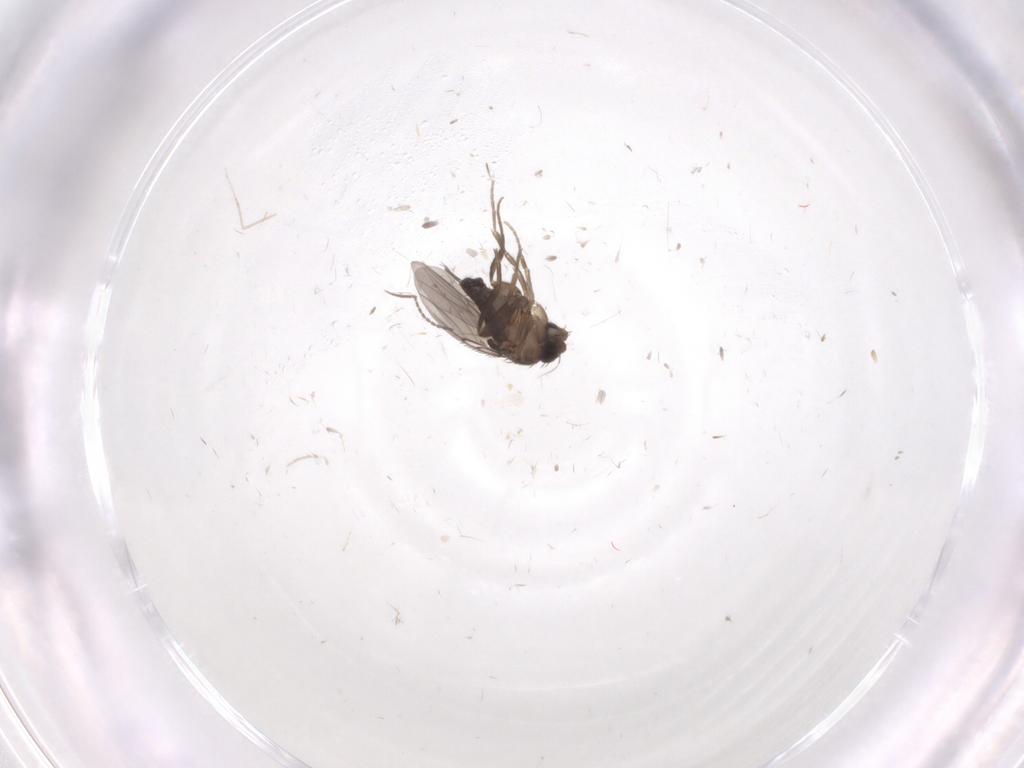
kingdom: Animalia
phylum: Arthropoda
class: Insecta
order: Diptera
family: Phoridae
